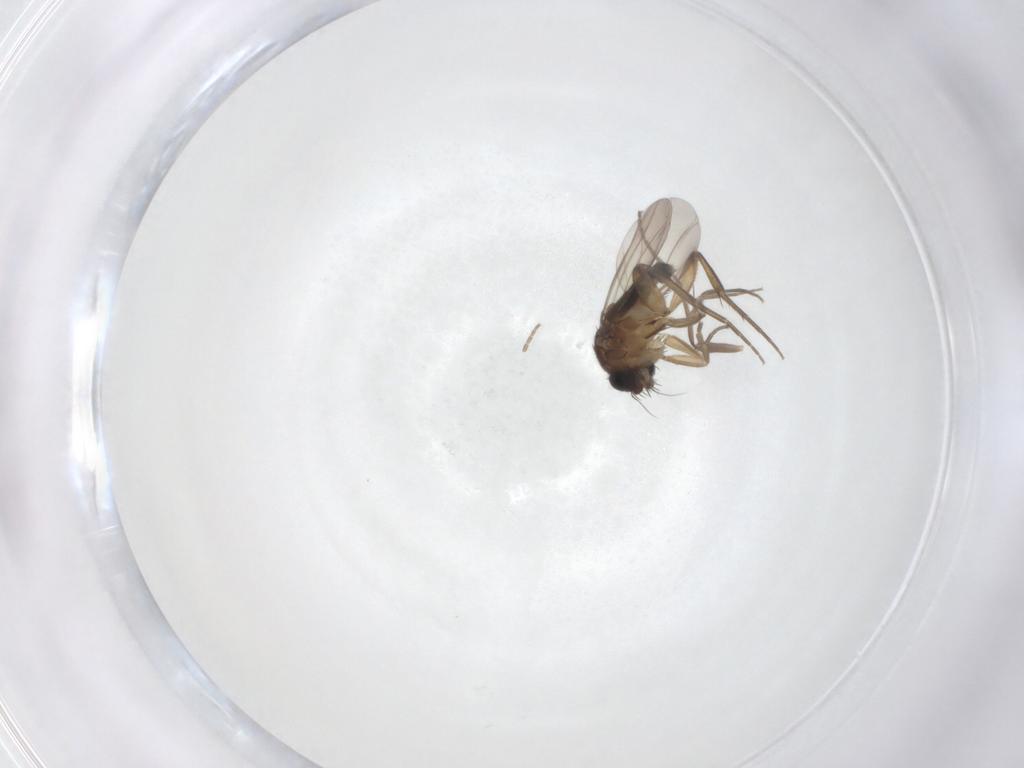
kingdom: Animalia
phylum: Arthropoda
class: Insecta
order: Diptera
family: Phoridae
